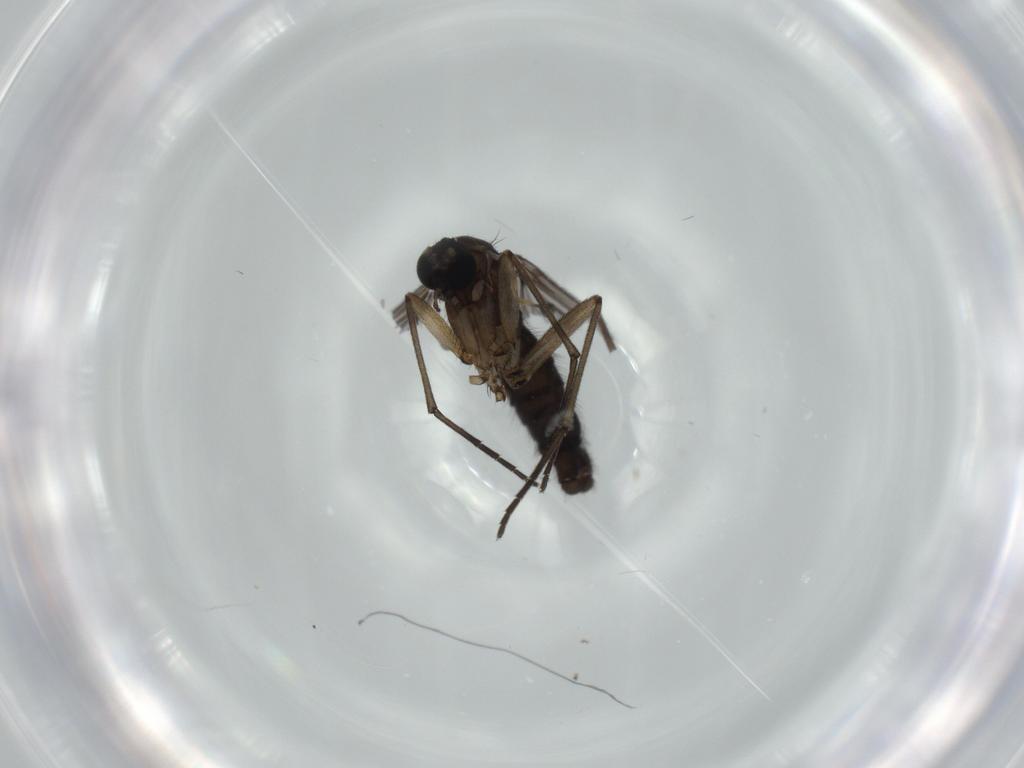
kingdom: Animalia
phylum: Arthropoda
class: Insecta
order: Diptera
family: Sciaridae
